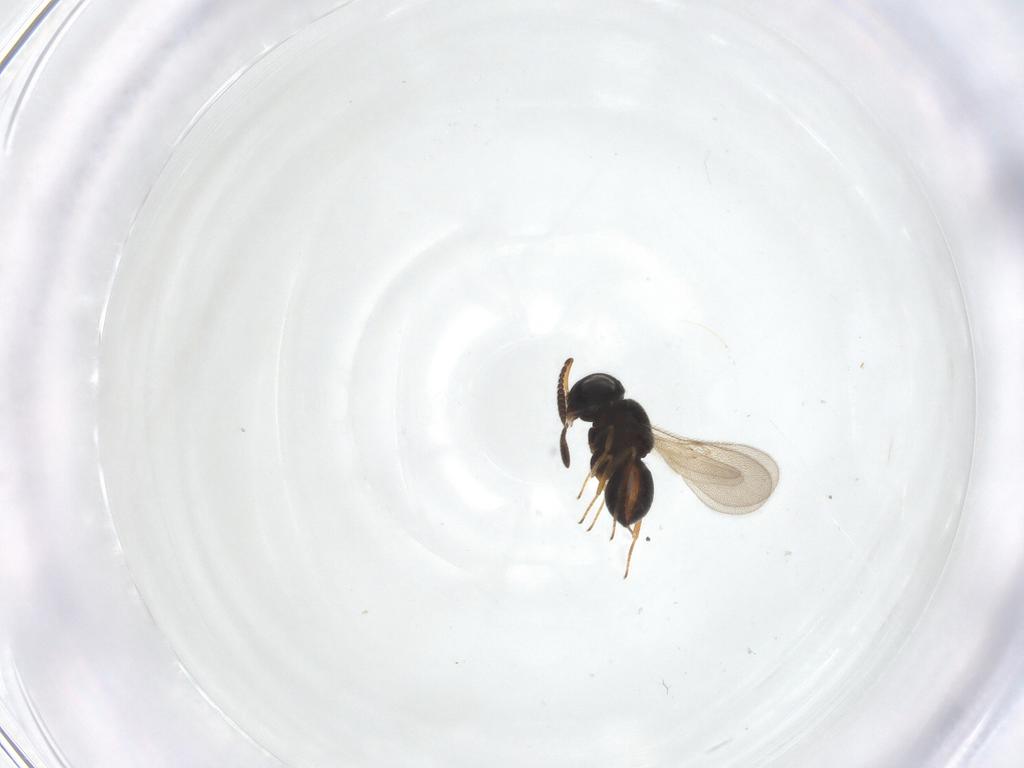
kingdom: Animalia
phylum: Arthropoda
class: Insecta
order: Hymenoptera
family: Scelionidae
